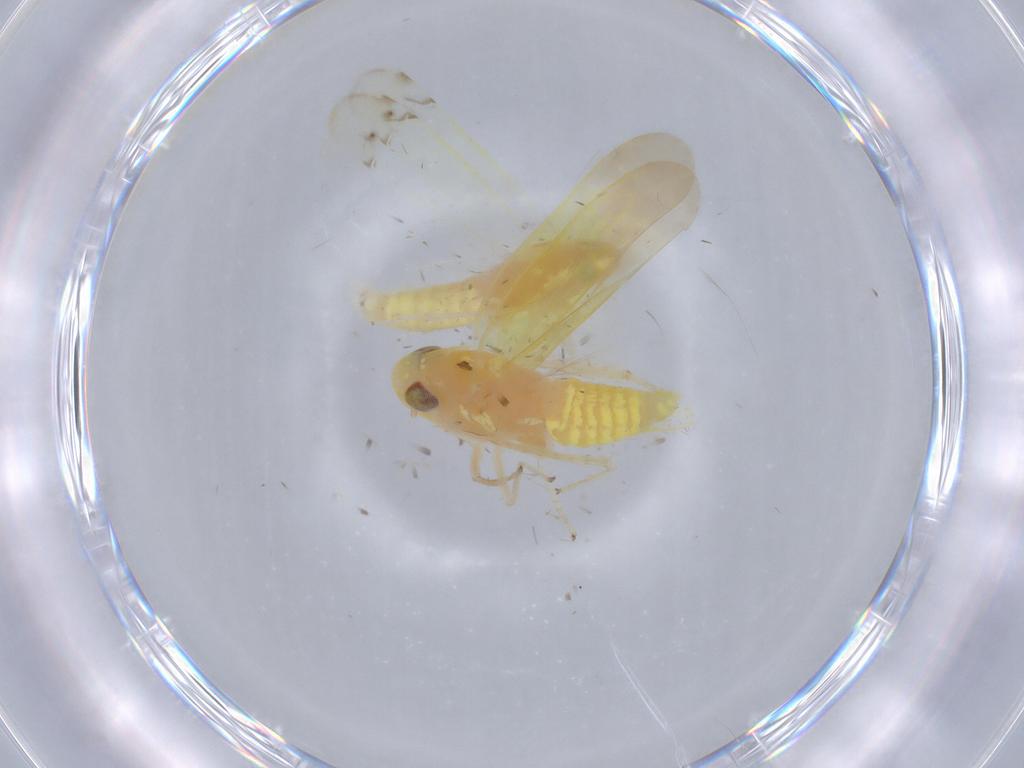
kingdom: Animalia
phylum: Arthropoda
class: Insecta
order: Hemiptera
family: Cicadellidae
